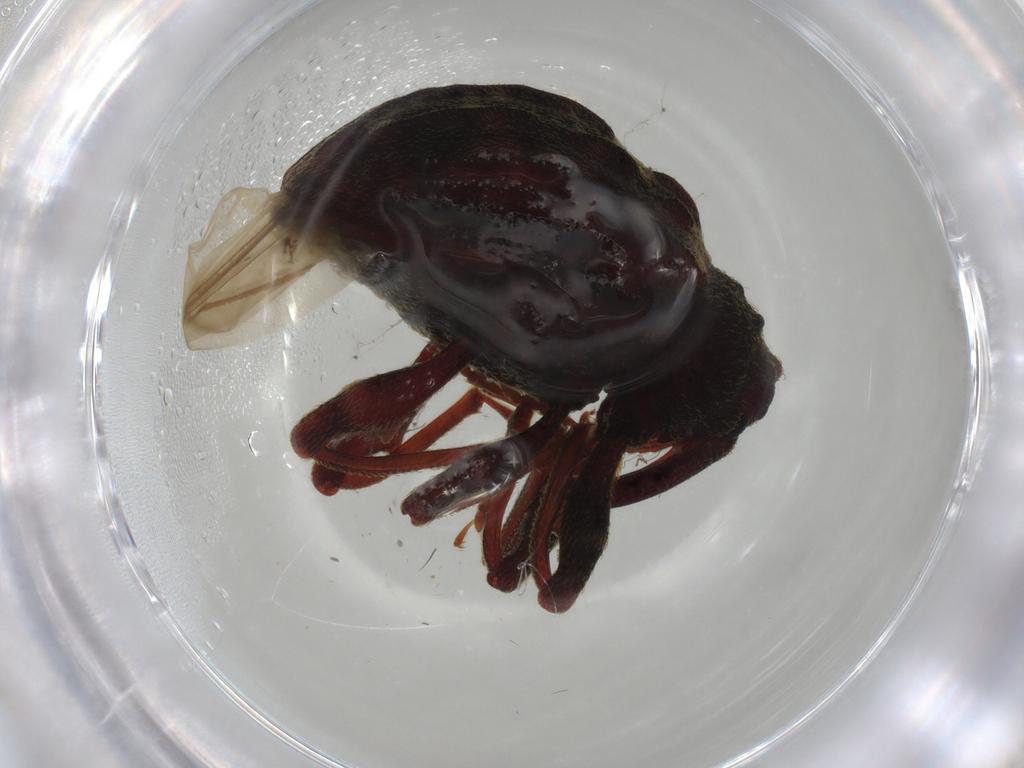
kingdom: Animalia
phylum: Arthropoda
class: Insecta
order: Coleoptera
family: Curculionidae
